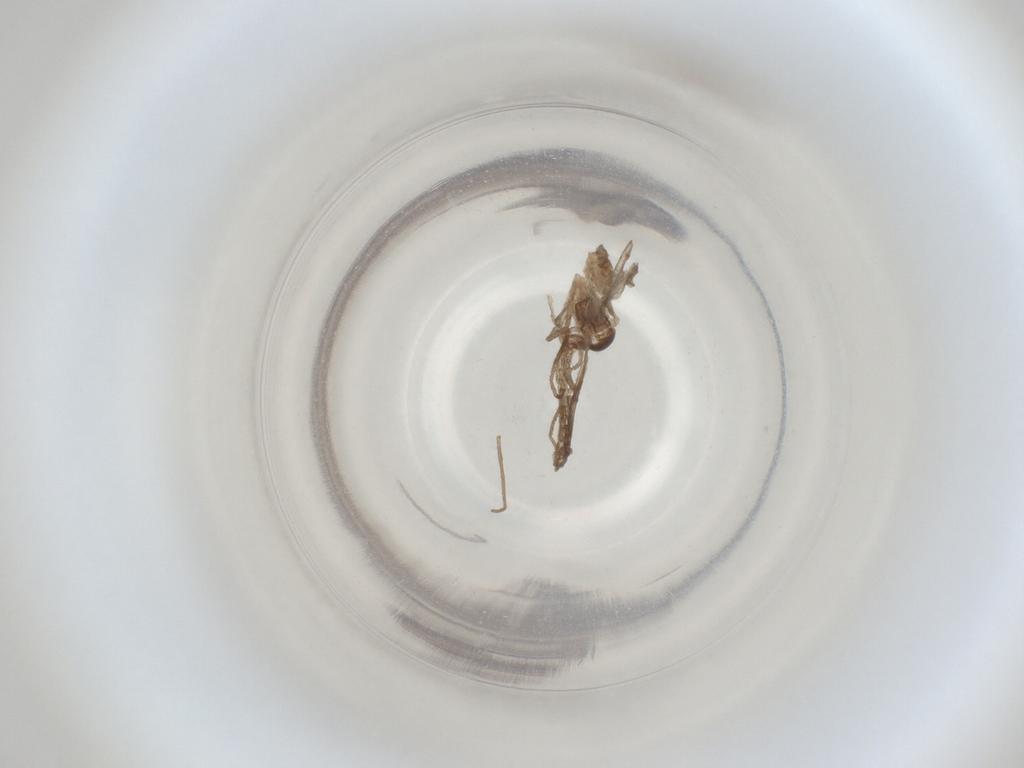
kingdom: Animalia
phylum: Arthropoda
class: Insecta
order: Diptera
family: Cecidomyiidae
